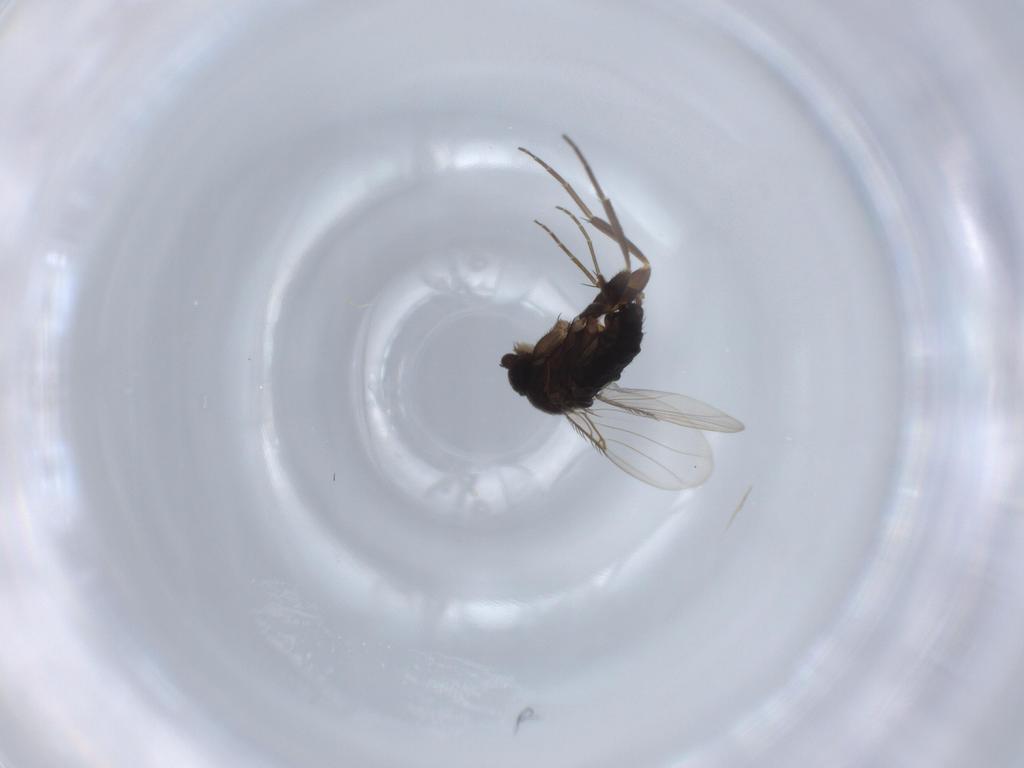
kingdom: Animalia
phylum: Arthropoda
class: Insecta
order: Diptera
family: Phoridae
